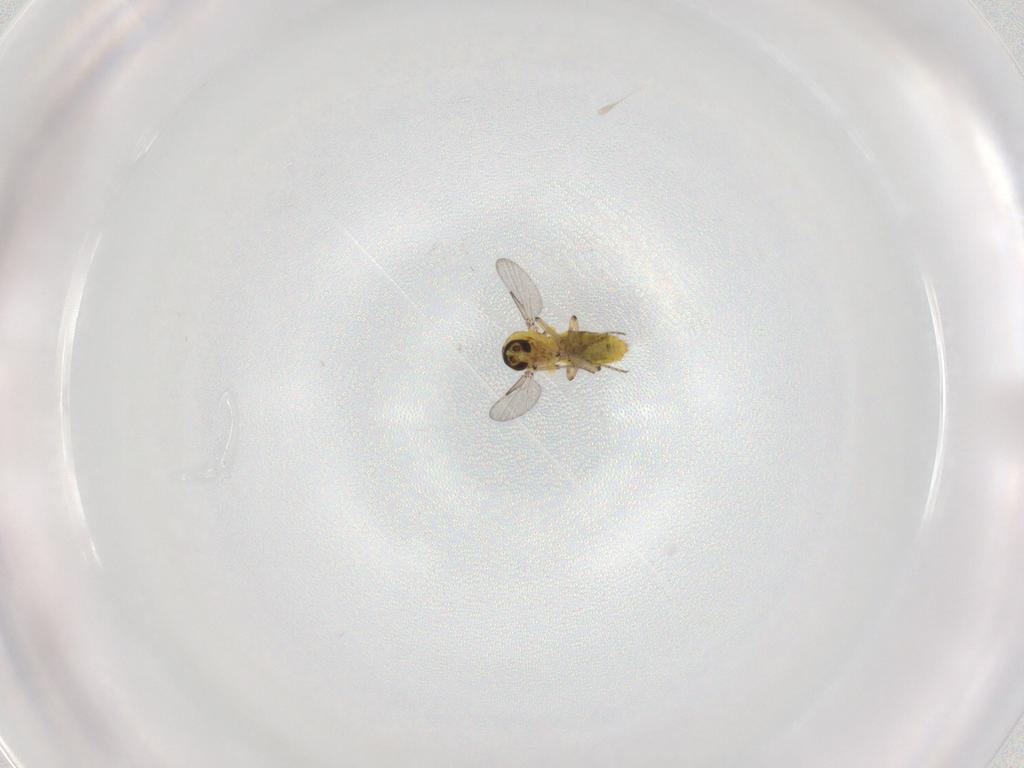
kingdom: Animalia
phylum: Arthropoda
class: Insecta
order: Diptera
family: Ceratopogonidae
